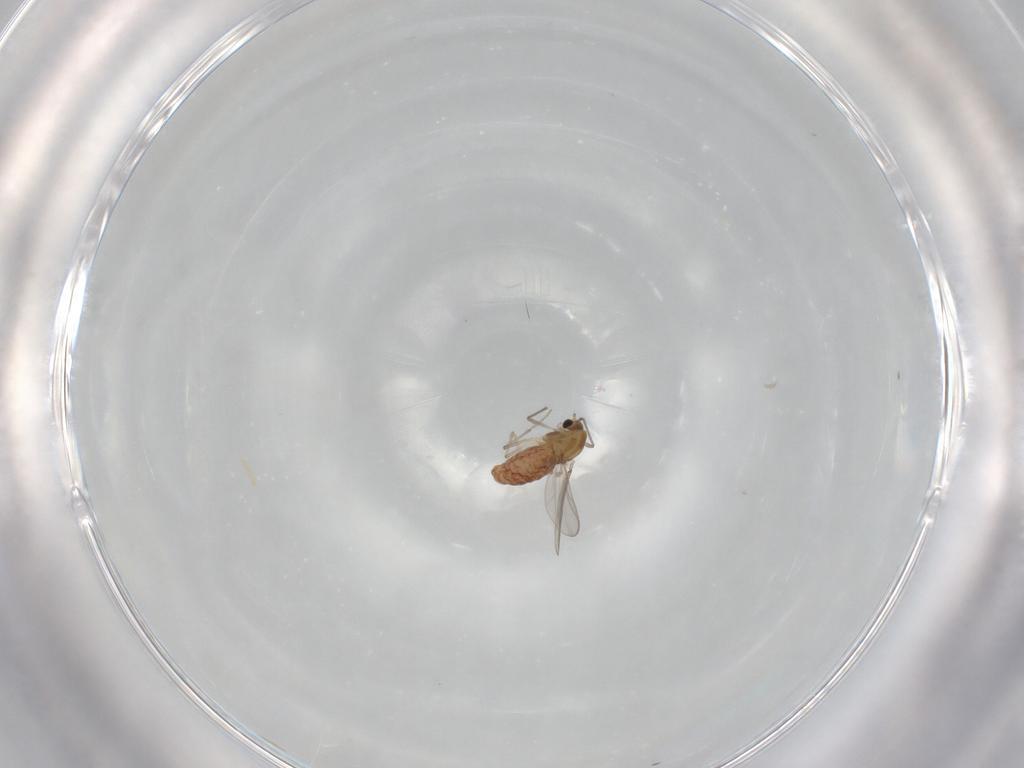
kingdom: Animalia
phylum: Arthropoda
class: Insecta
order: Diptera
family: Chironomidae
